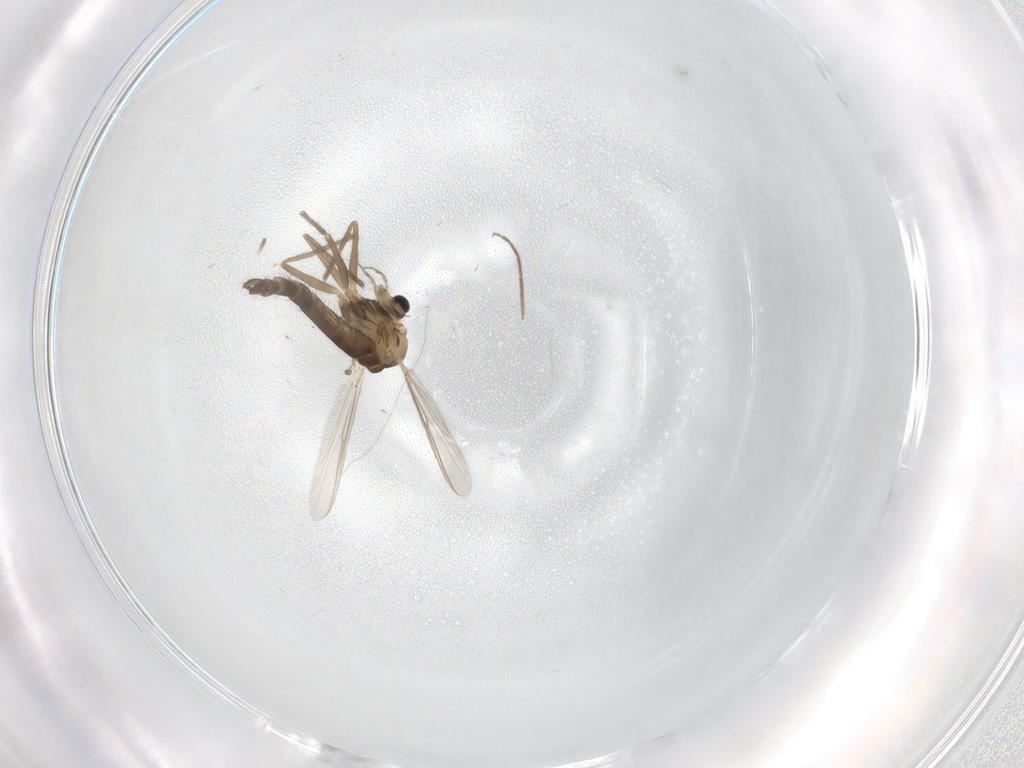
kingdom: Animalia
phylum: Arthropoda
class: Insecta
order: Diptera
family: Chironomidae
